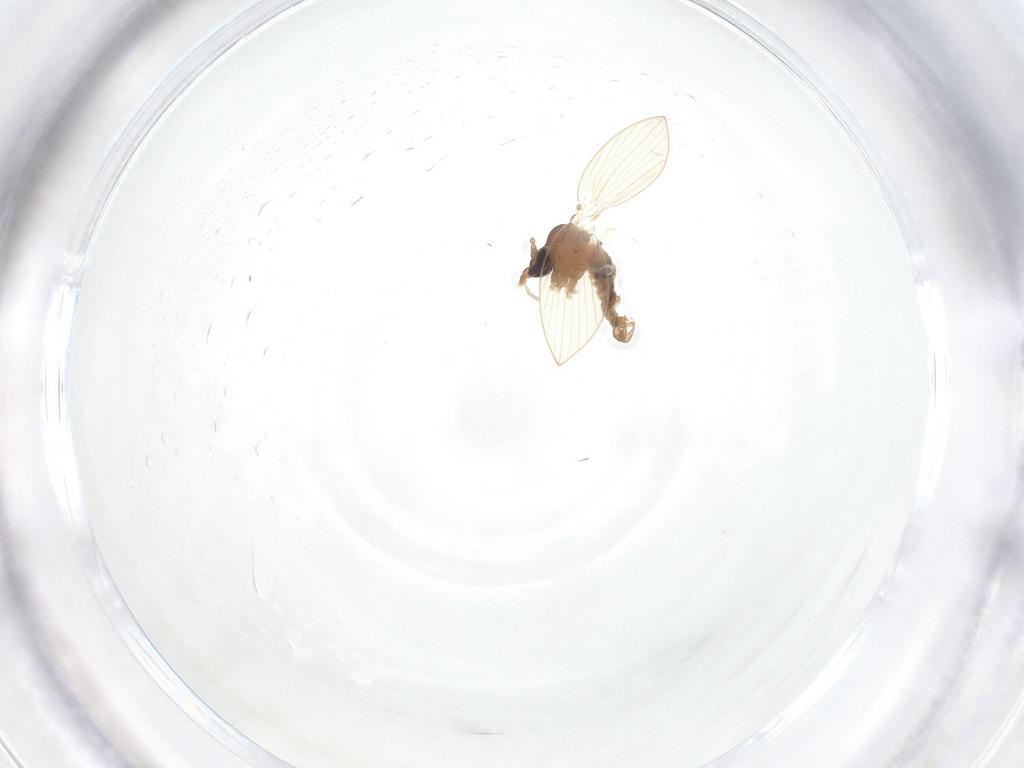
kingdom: Animalia
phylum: Arthropoda
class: Insecta
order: Diptera
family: Psychodidae
